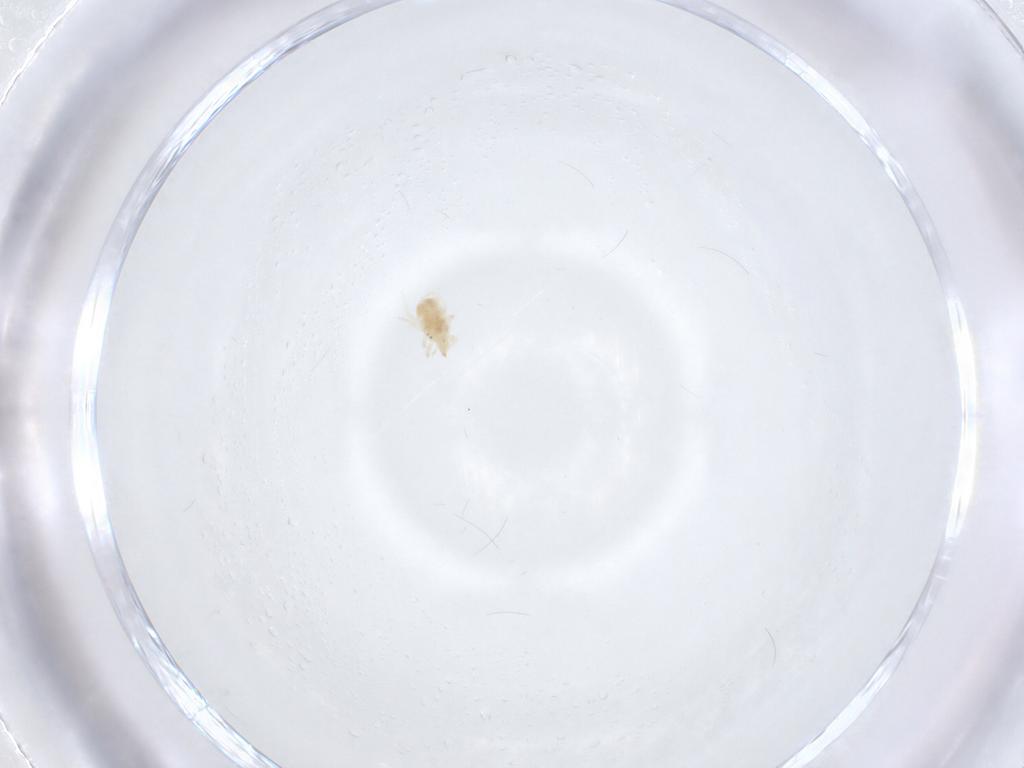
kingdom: Animalia
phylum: Arthropoda
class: Arachnida
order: Trombidiformes
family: Bdellidae
